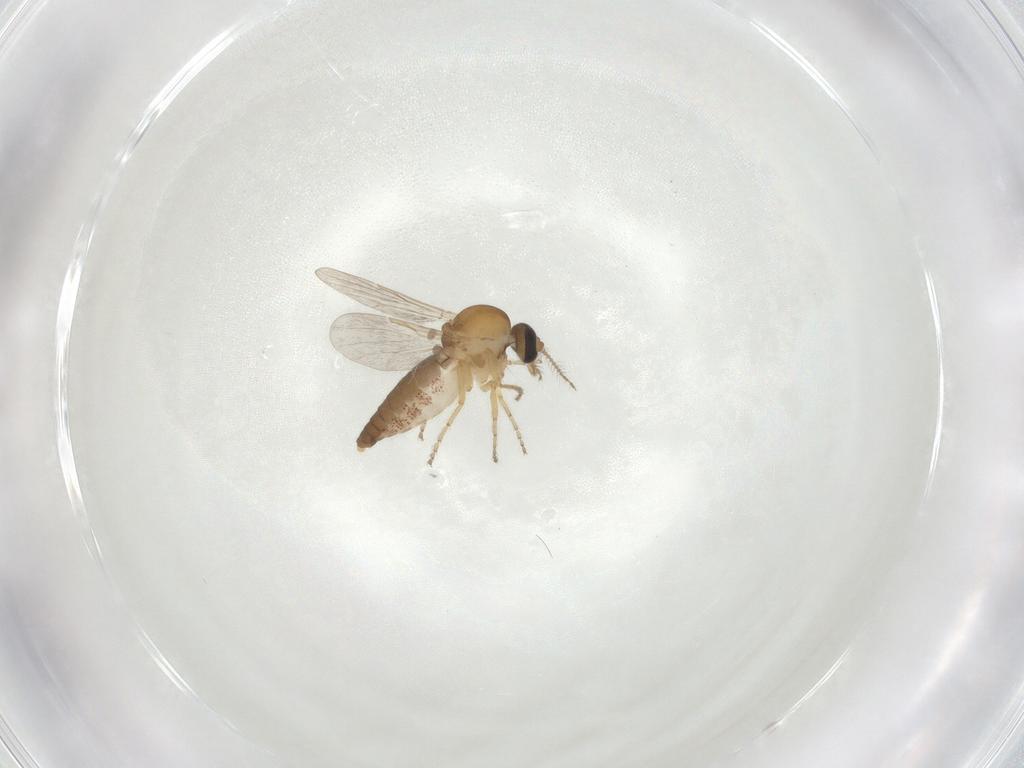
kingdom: Animalia
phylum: Arthropoda
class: Insecta
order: Diptera
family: Ceratopogonidae
